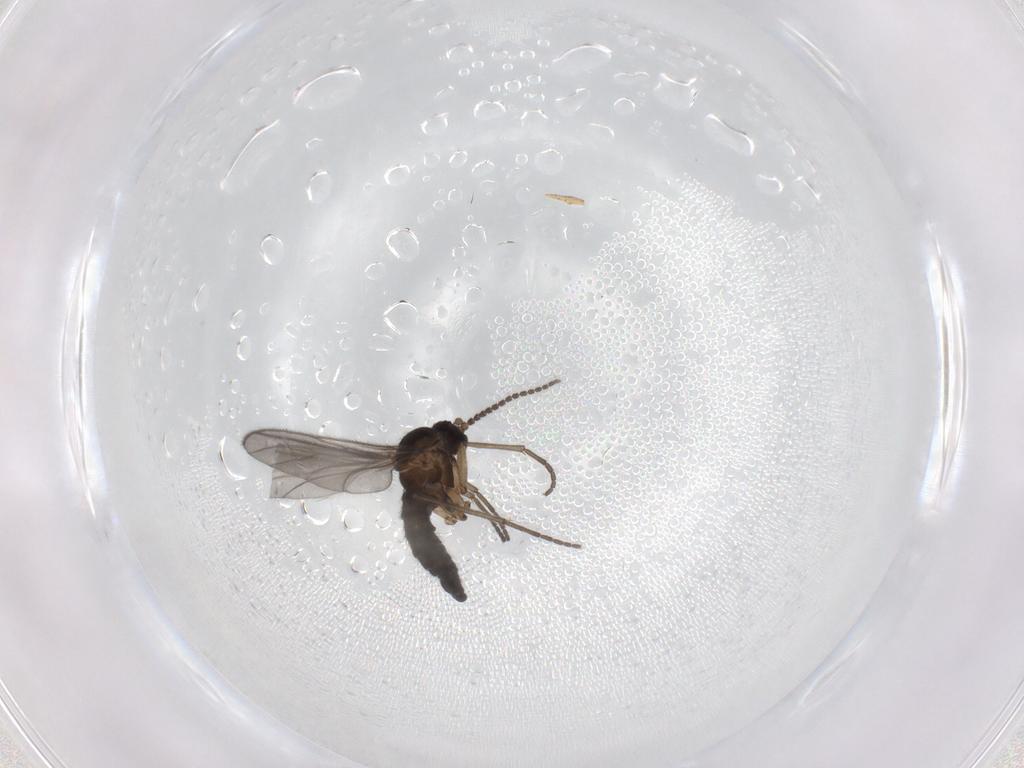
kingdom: Animalia
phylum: Arthropoda
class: Insecta
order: Diptera
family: Sciaridae
